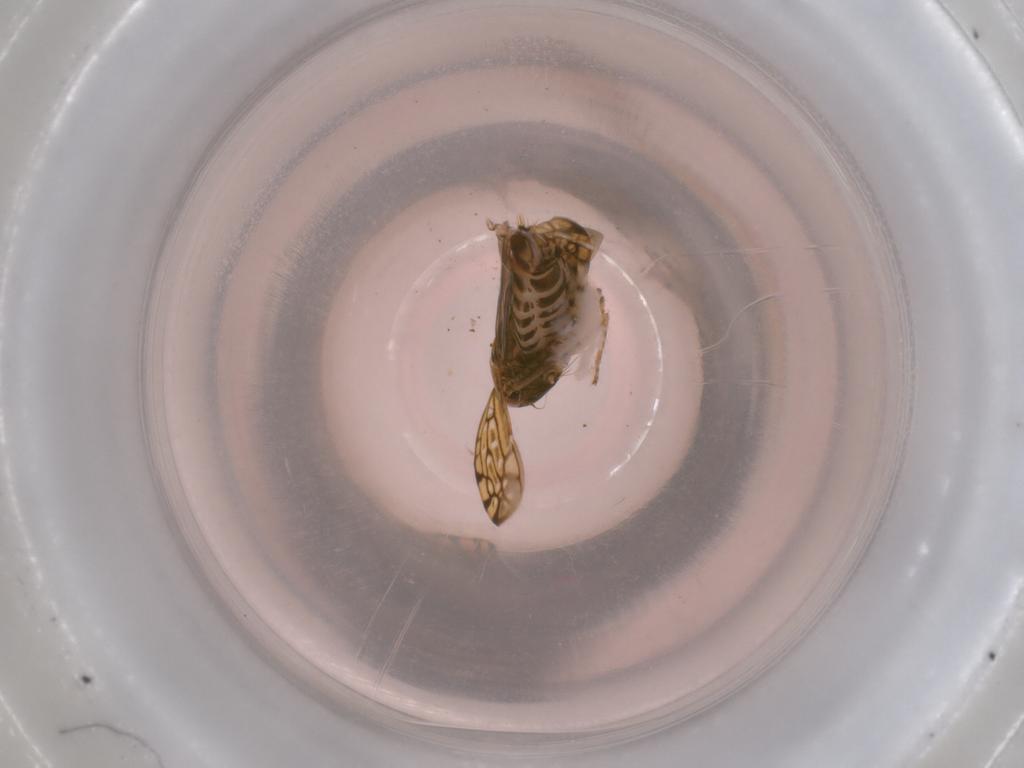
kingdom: Animalia
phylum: Arthropoda
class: Insecta
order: Hemiptera
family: Cicadellidae
